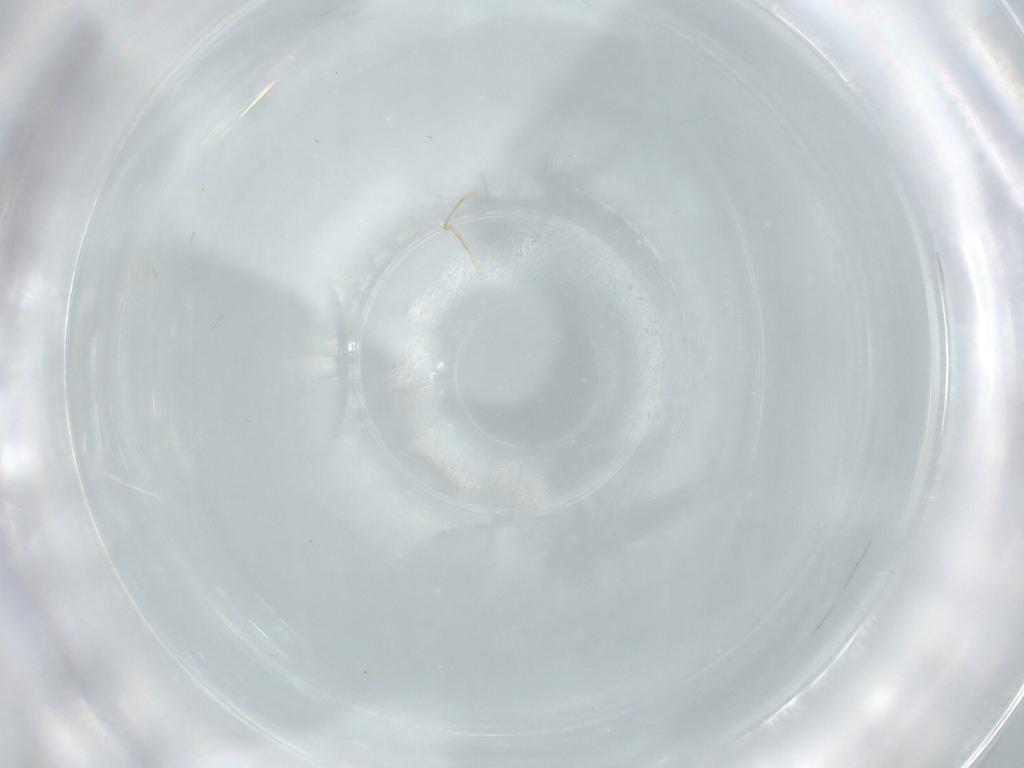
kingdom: Animalia
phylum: Arthropoda
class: Insecta
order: Diptera
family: Cecidomyiidae
